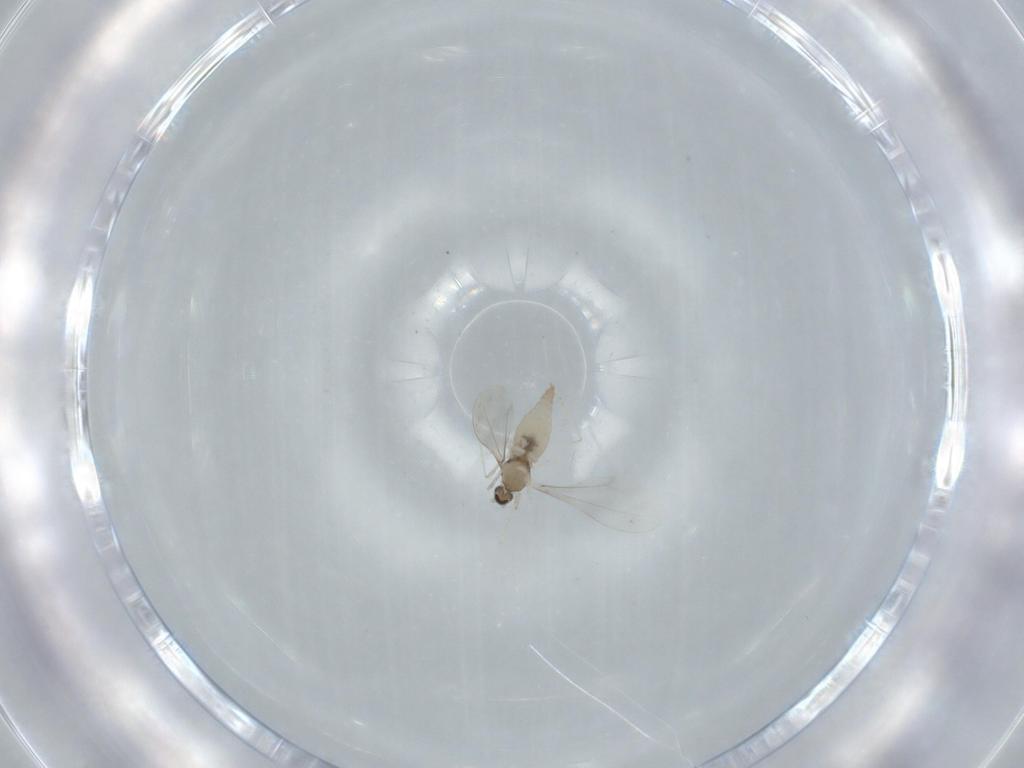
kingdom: Animalia
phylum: Arthropoda
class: Insecta
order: Diptera
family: Cecidomyiidae
